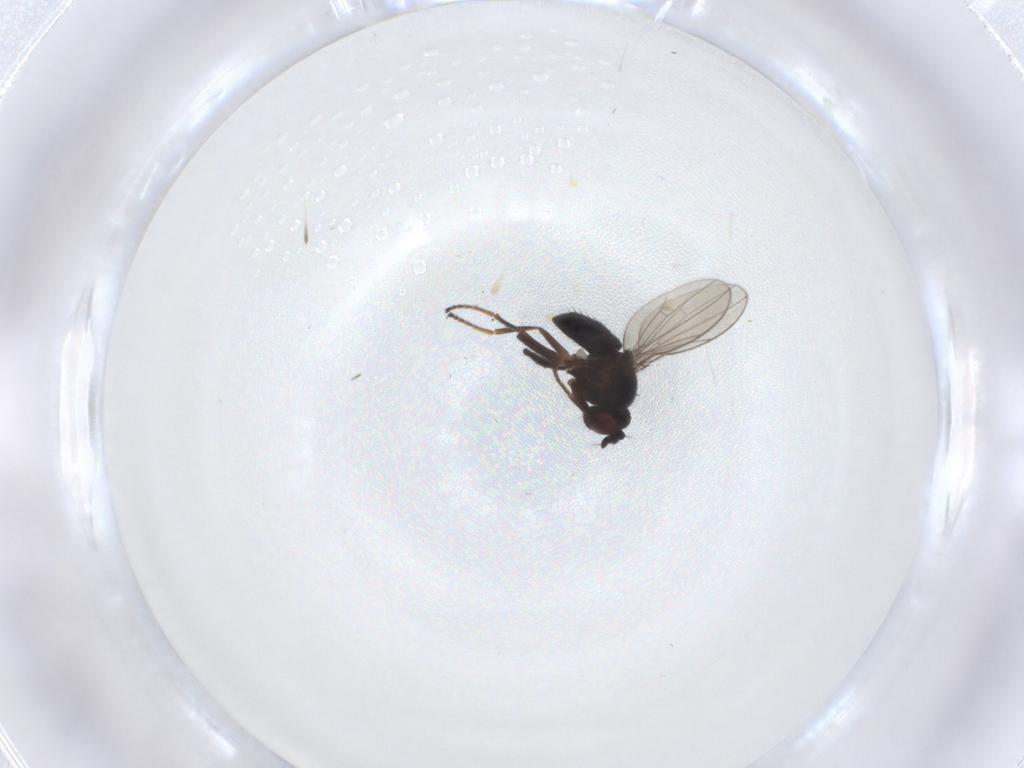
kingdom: Animalia
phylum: Arthropoda
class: Insecta
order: Diptera
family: Ephydridae
